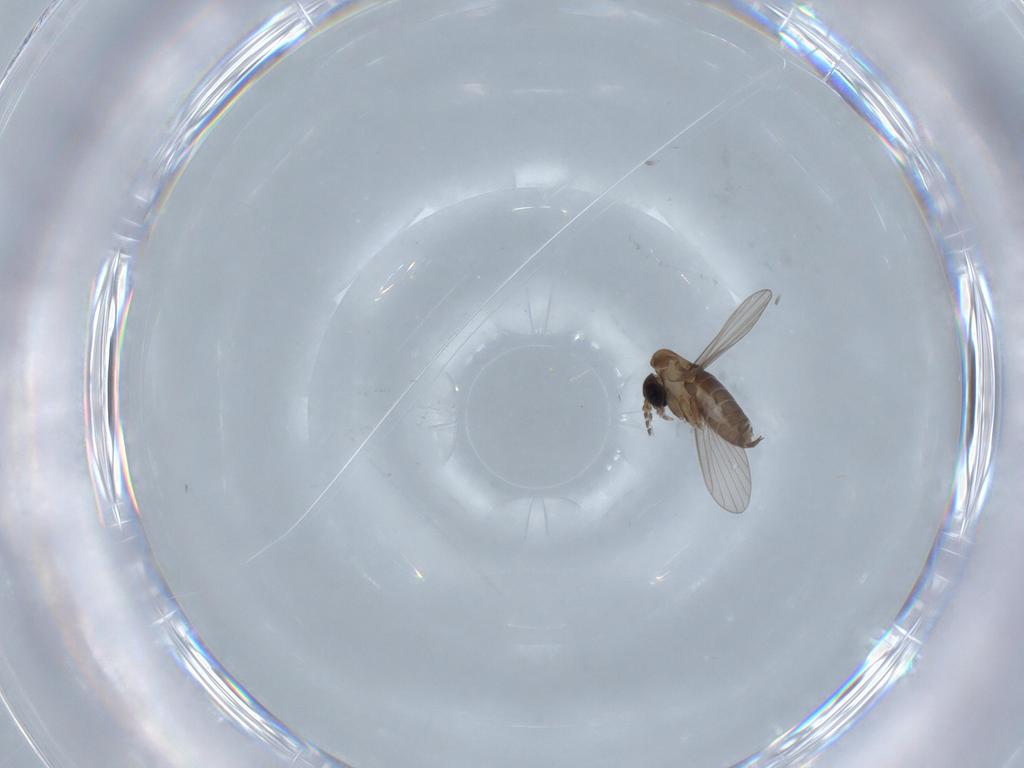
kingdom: Animalia
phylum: Arthropoda
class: Insecta
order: Diptera
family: Psychodidae
